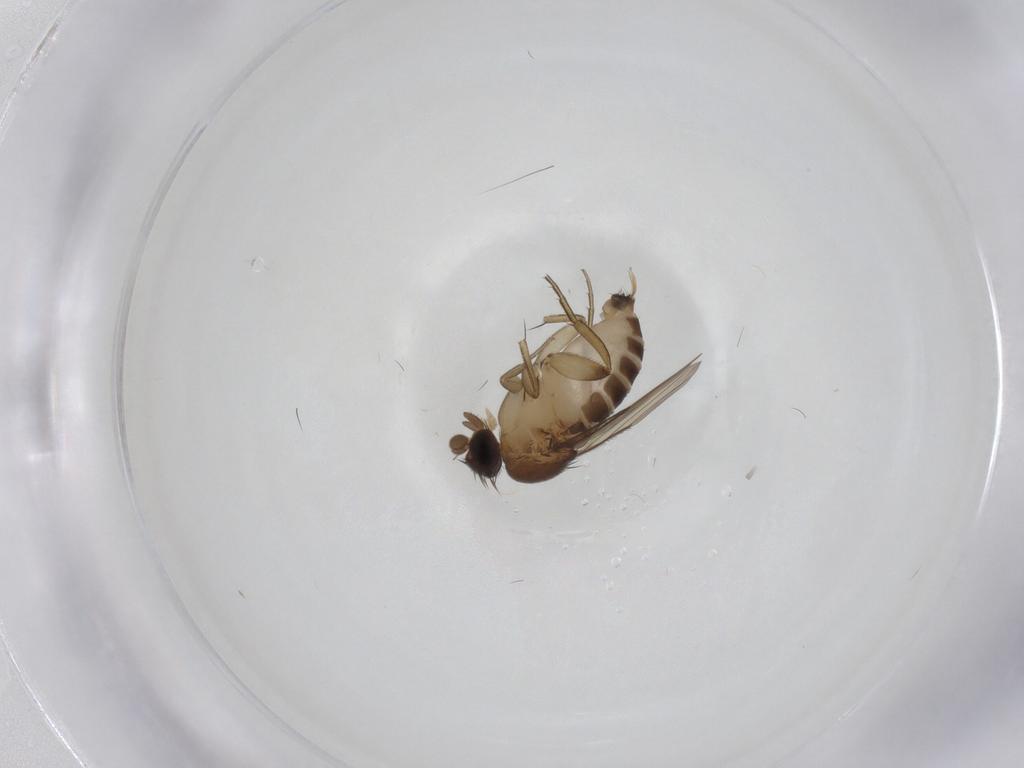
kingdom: Animalia
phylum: Arthropoda
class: Insecta
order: Diptera
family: Phoridae
